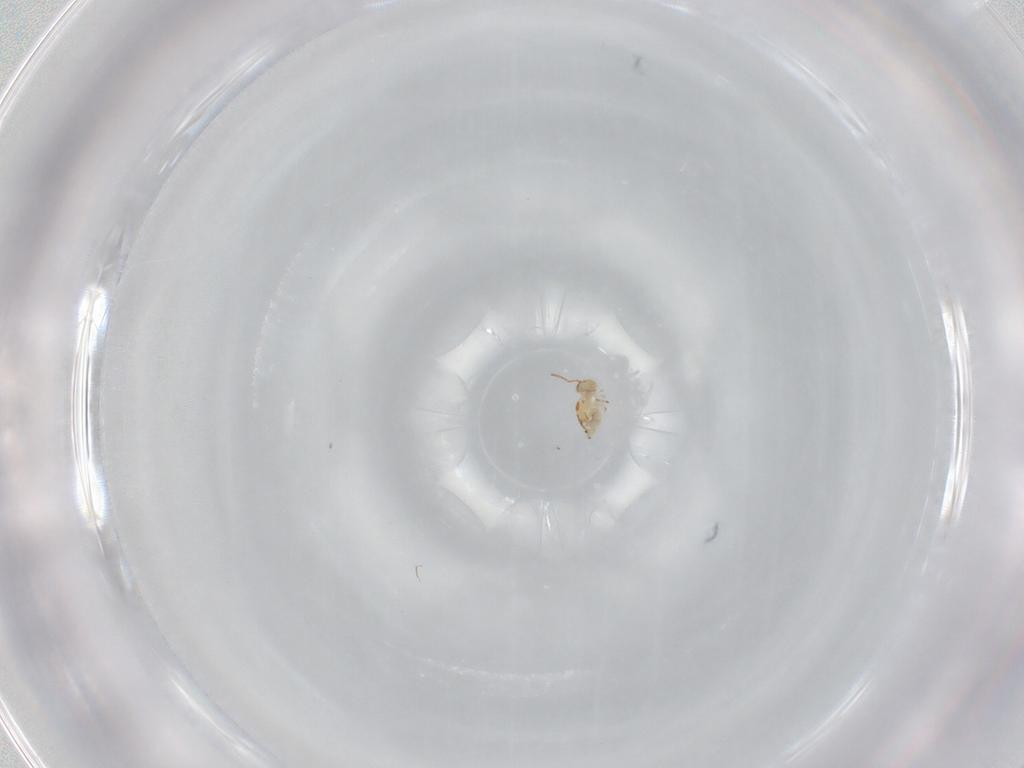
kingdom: Animalia
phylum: Arthropoda
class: Collembola
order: Symphypleona
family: Bourletiellidae
